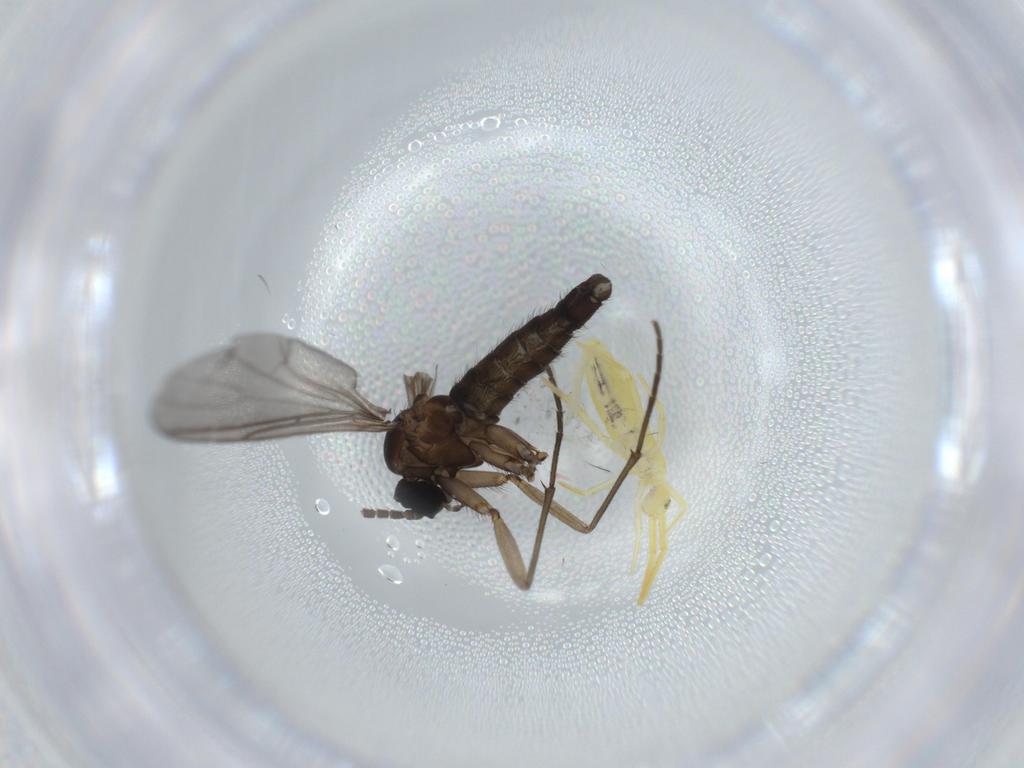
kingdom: Animalia
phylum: Arthropoda
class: Insecta
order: Diptera
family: Sciaridae
